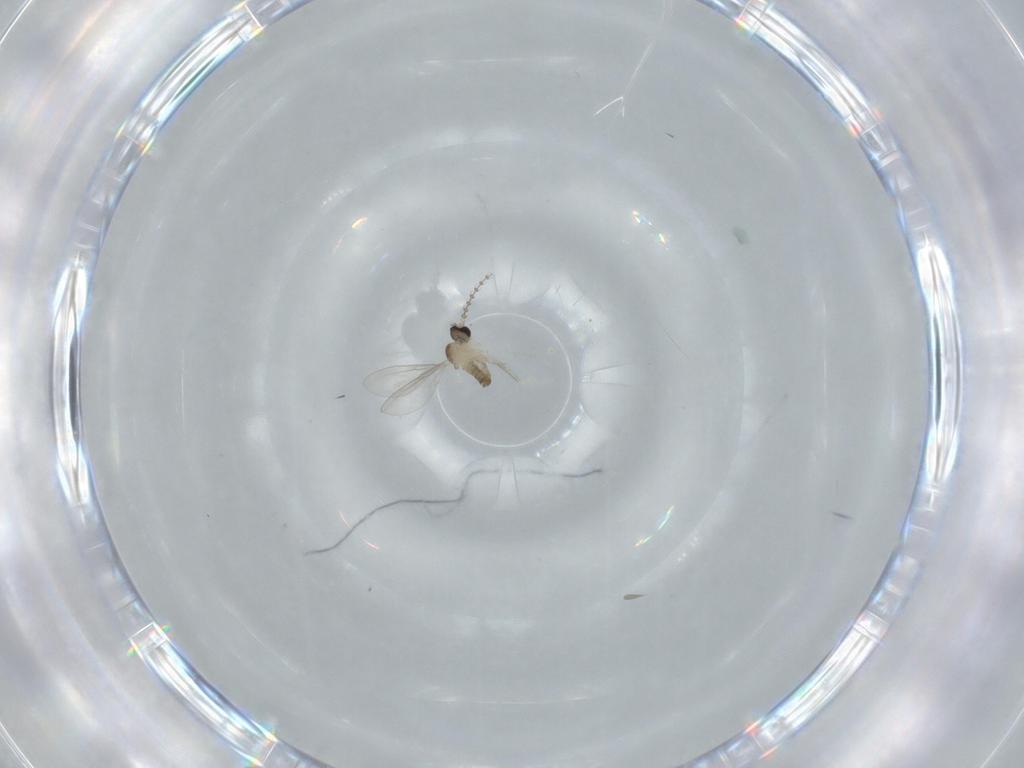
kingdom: Animalia
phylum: Arthropoda
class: Insecta
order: Diptera
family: Cecidomyiidae
